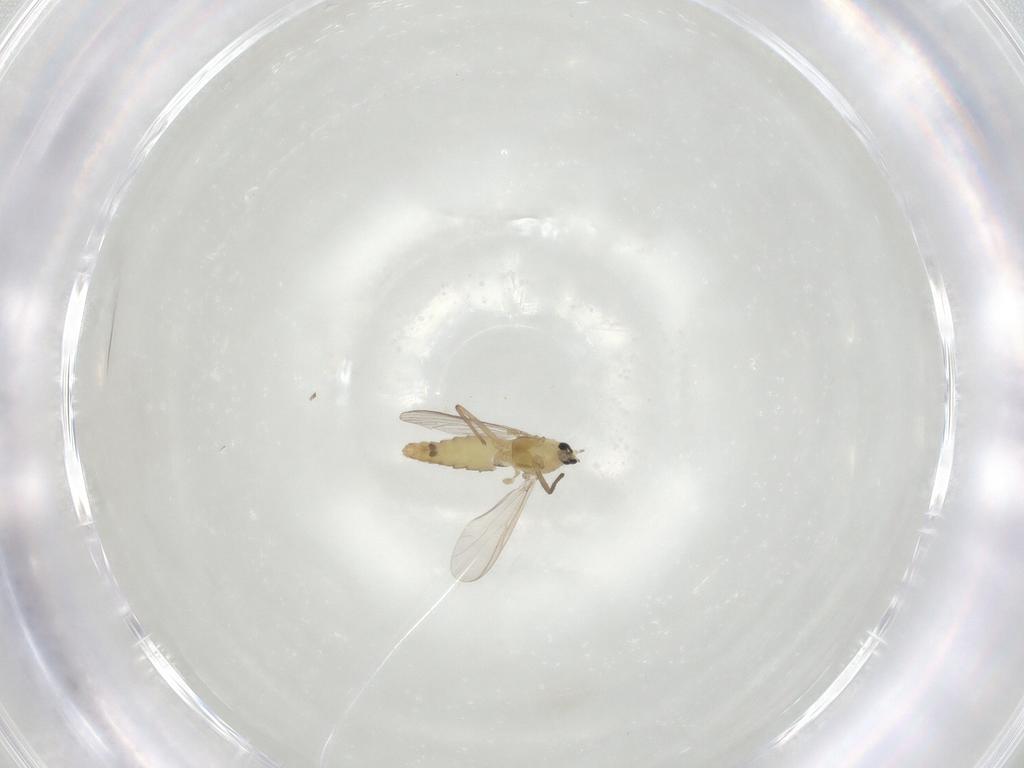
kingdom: Animalia
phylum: Arthropoda
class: Insecta
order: Diptera
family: Chironomidae
